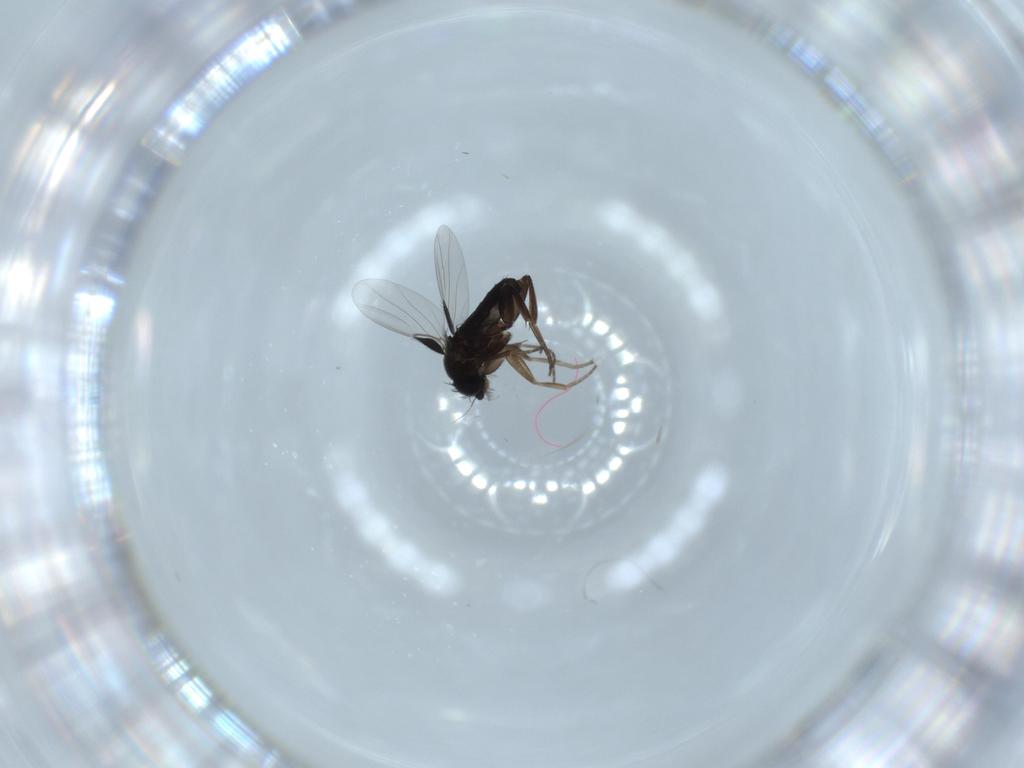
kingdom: Animalia
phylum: Arthropoda
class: Insecta
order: Diptera
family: Phoridae
